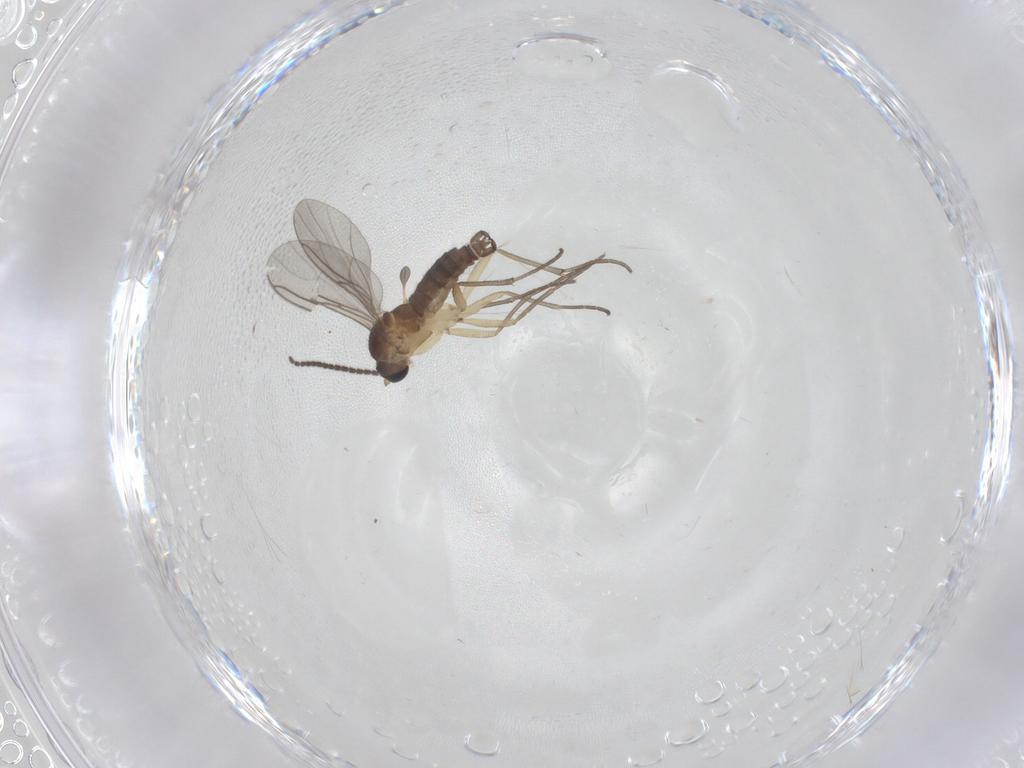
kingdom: Animalia
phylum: Arthropoda
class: Insecta
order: Diptera
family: Sciaridae
